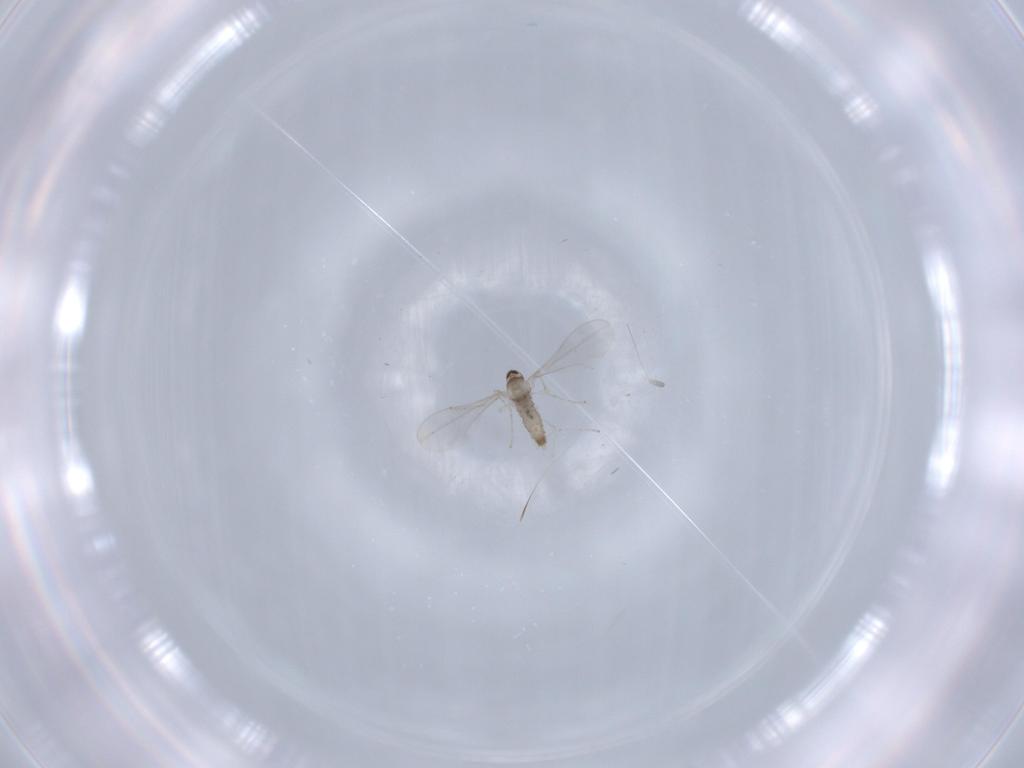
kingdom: Animalia
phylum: Arthropoda
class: Insecta
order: Diptera
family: Cecidomyiidae
